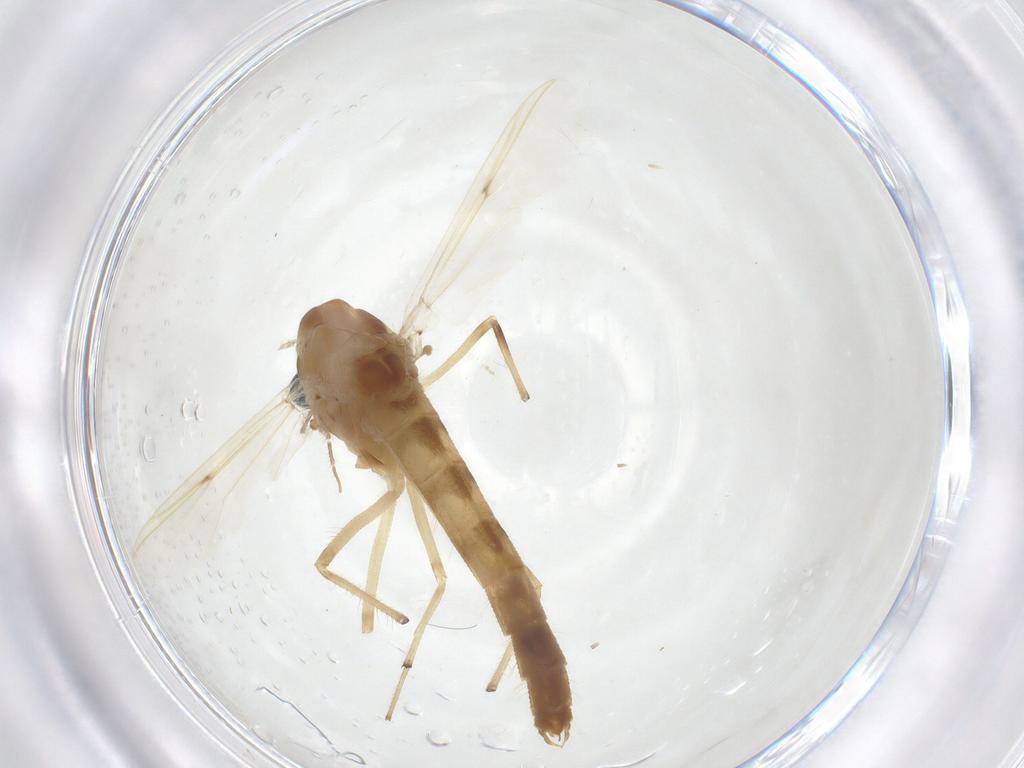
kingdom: Animalia
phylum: Arthropoda
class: Insecta
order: Diptera
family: Chironomidae
